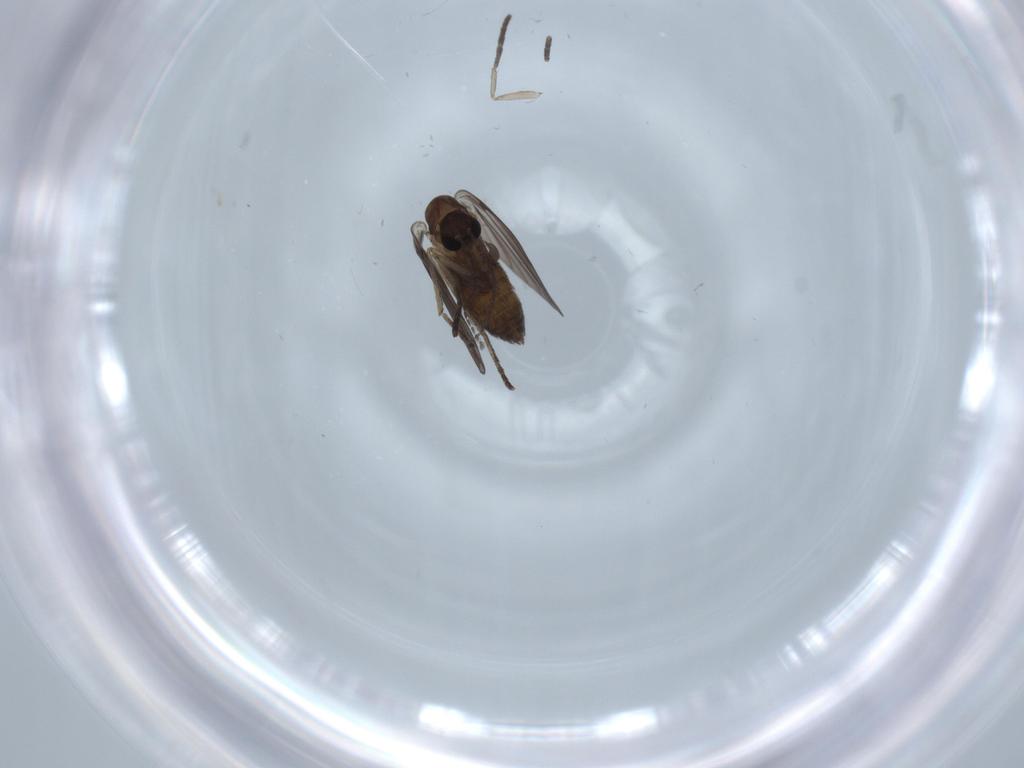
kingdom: Animalia
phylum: Arthropoda
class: Insecta
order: Diptera
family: Psychodidae
